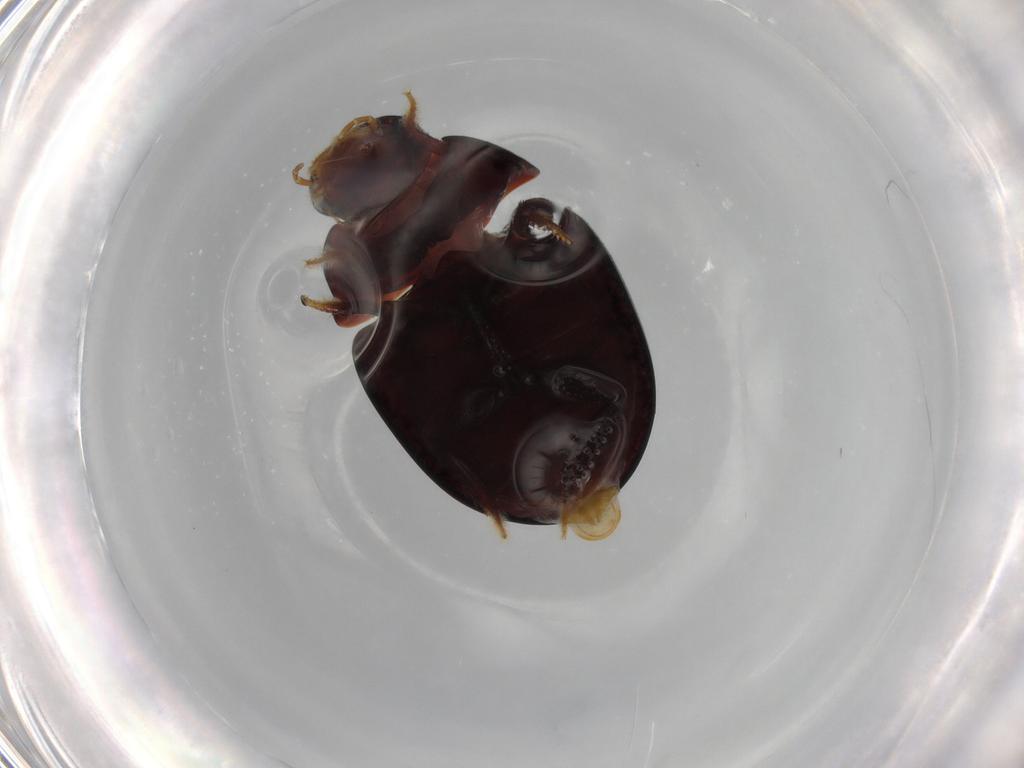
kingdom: Animalia
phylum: Arthropoda
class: Insecta
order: Coleoptera
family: Hydrophilidae
